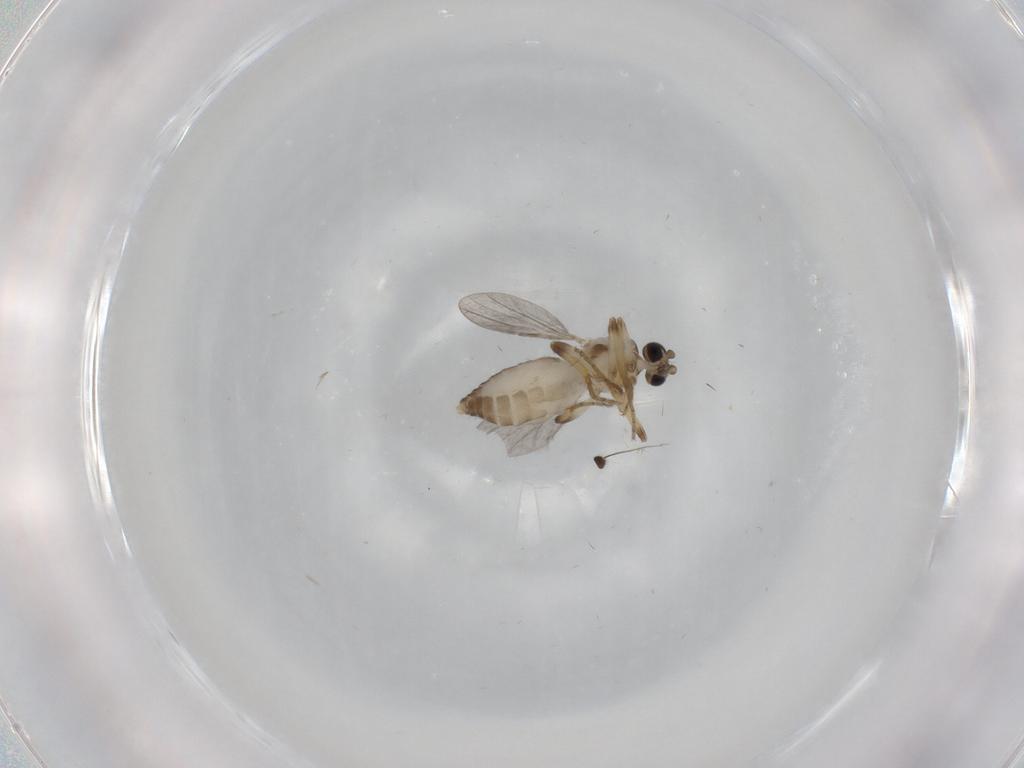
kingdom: Animalia
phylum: Arthropoda
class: Insecta
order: Diptera
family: Ceratopogonidae
